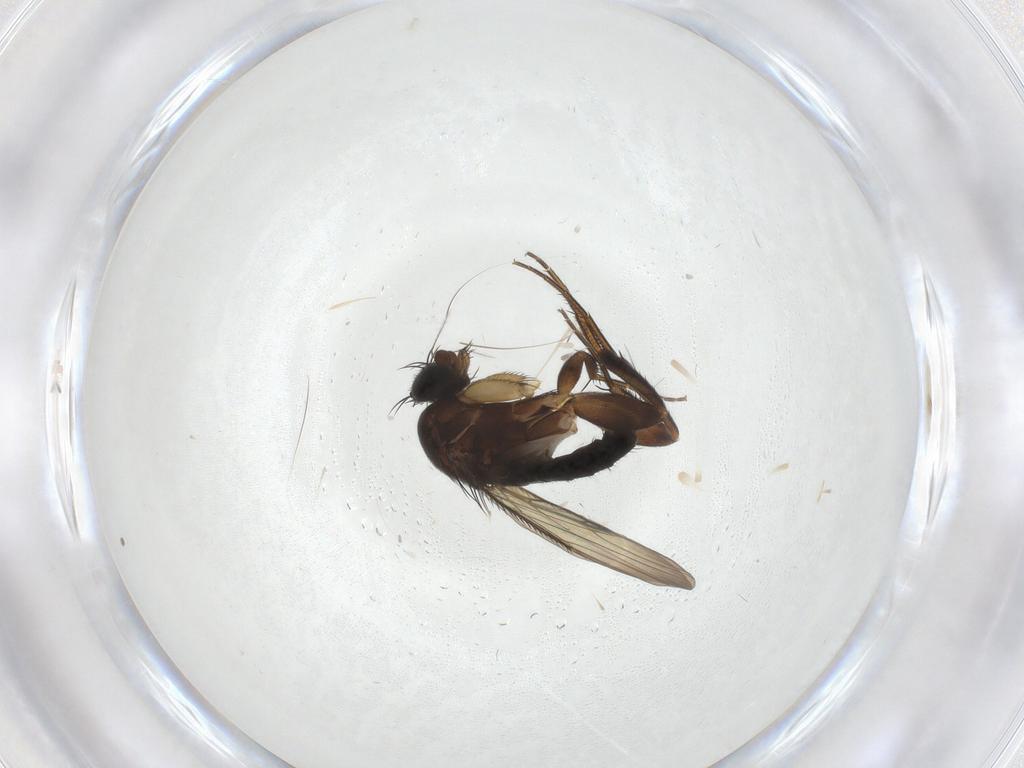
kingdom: Animalia
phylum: Arthropoda
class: Insecta
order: Diptera
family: Phoridae
